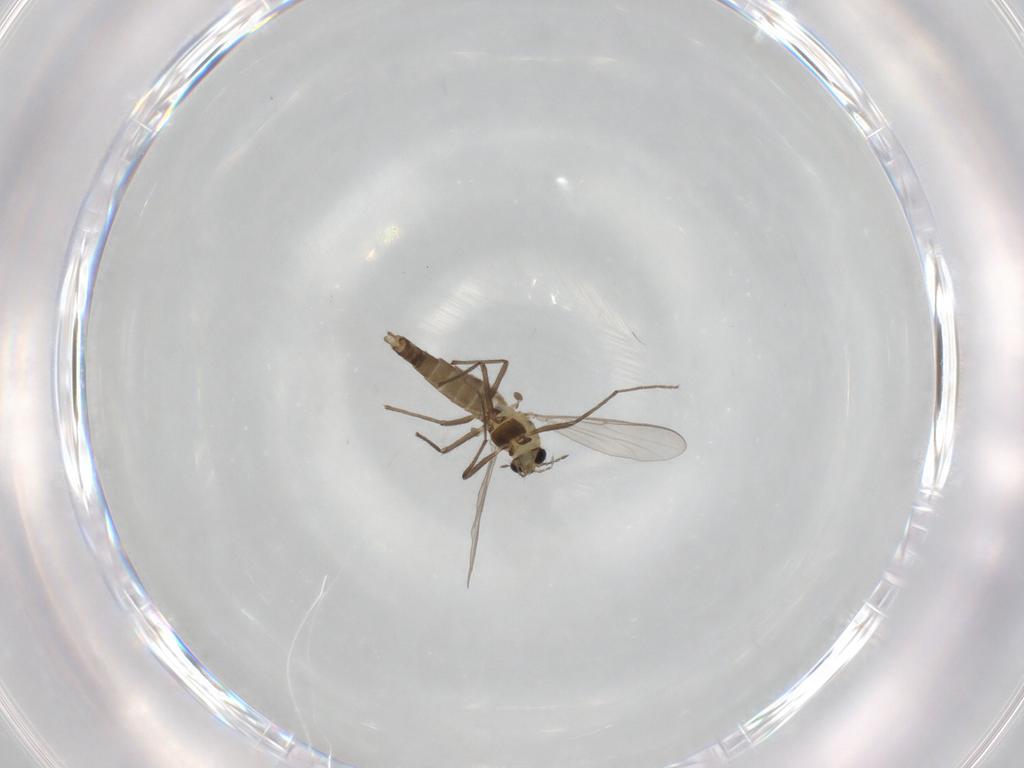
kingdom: Animalia
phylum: Arthropoda
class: Insecta
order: Diptera
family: Chironomidae
